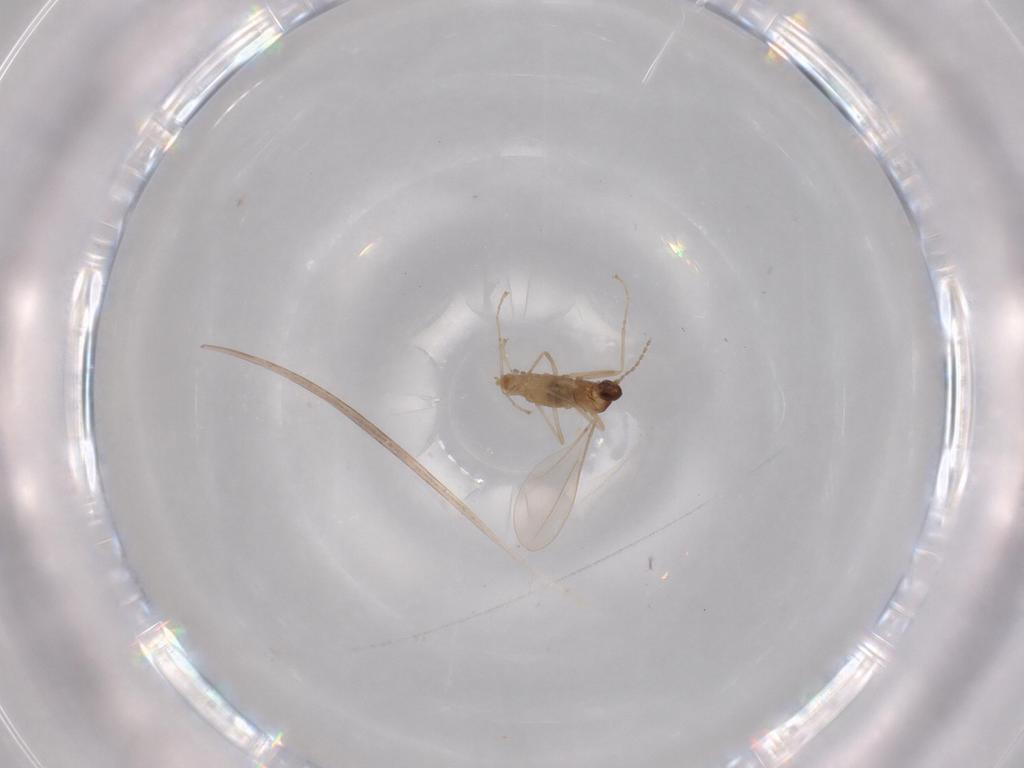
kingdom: Animalia
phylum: Arthropoda
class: Insecta
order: Diptera
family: Cecidomyiidae
